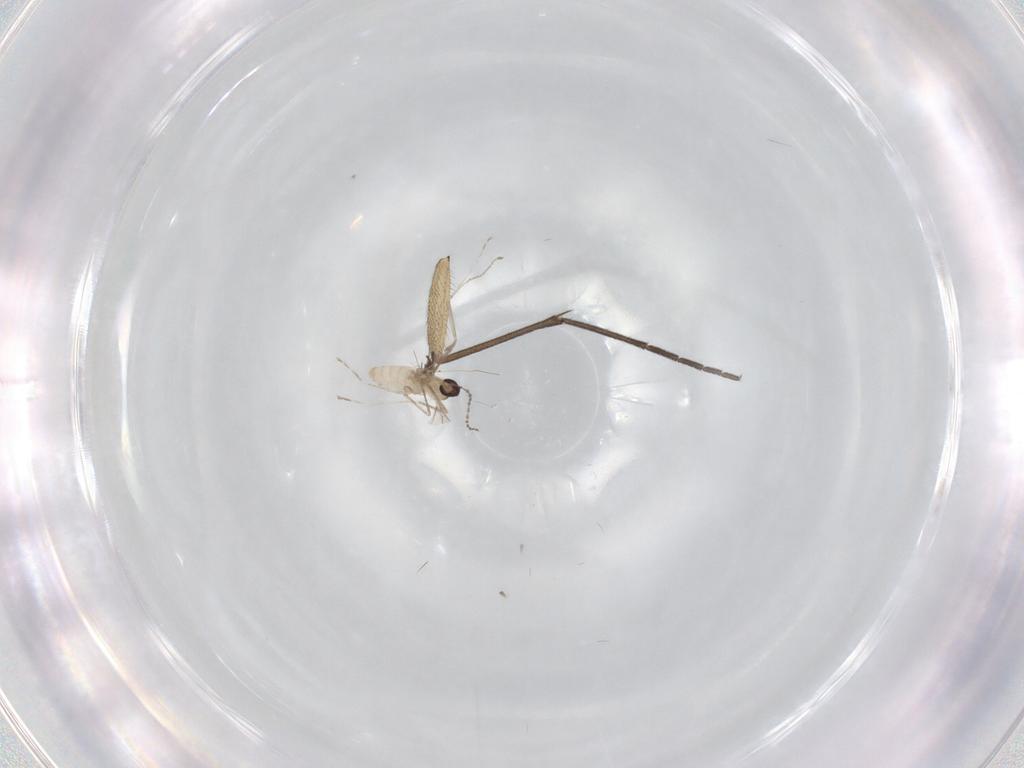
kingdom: Animalia
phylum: Arthropoda
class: Insecta
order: Diptera
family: Cecidomyiidae
